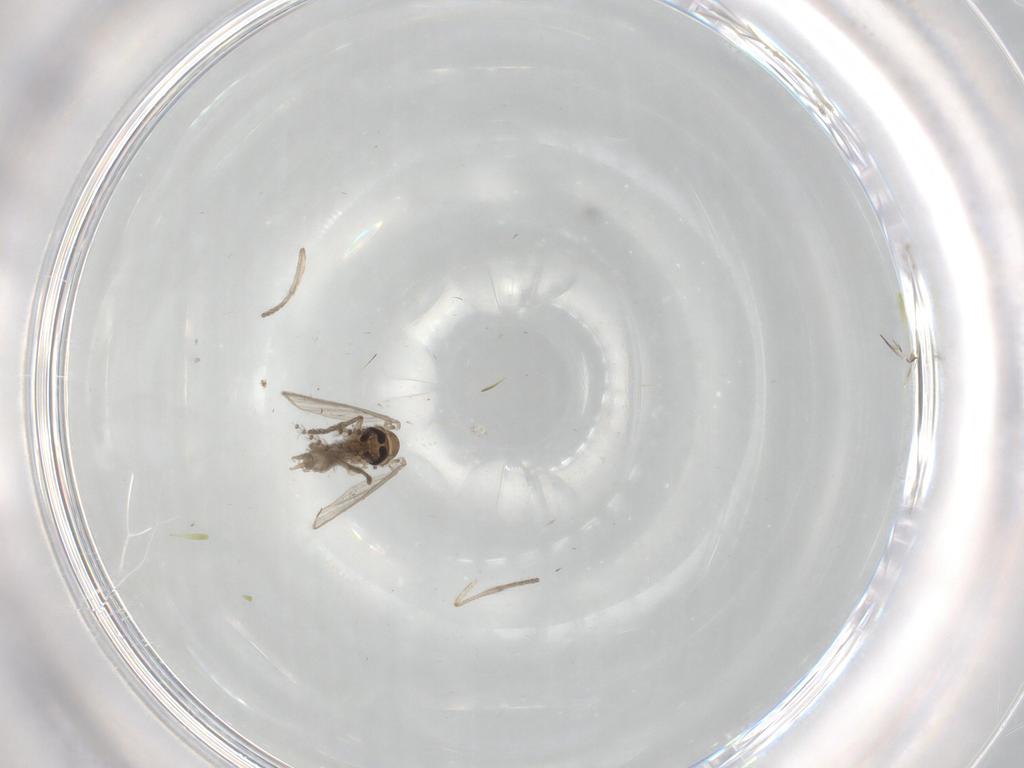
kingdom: Animalia
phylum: Arthropoda
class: Insecta
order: Diptera
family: Psychodidae
